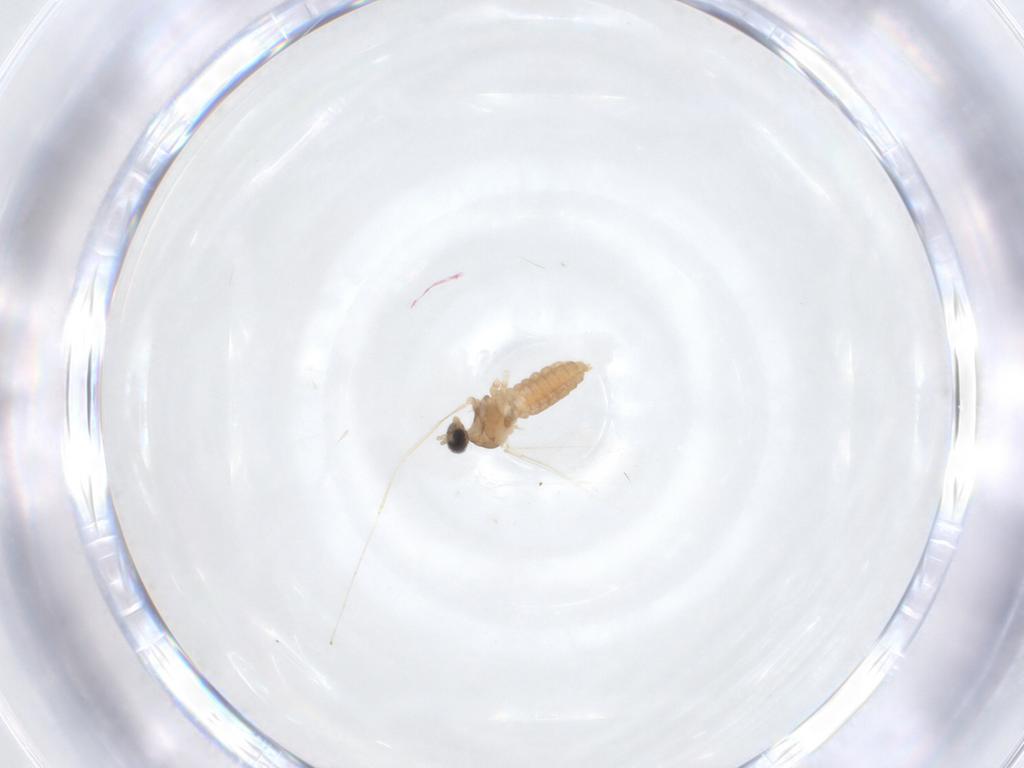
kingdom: Animalia
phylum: Arthropoda
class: Insecta
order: Diptera
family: Cecidomyiidae
